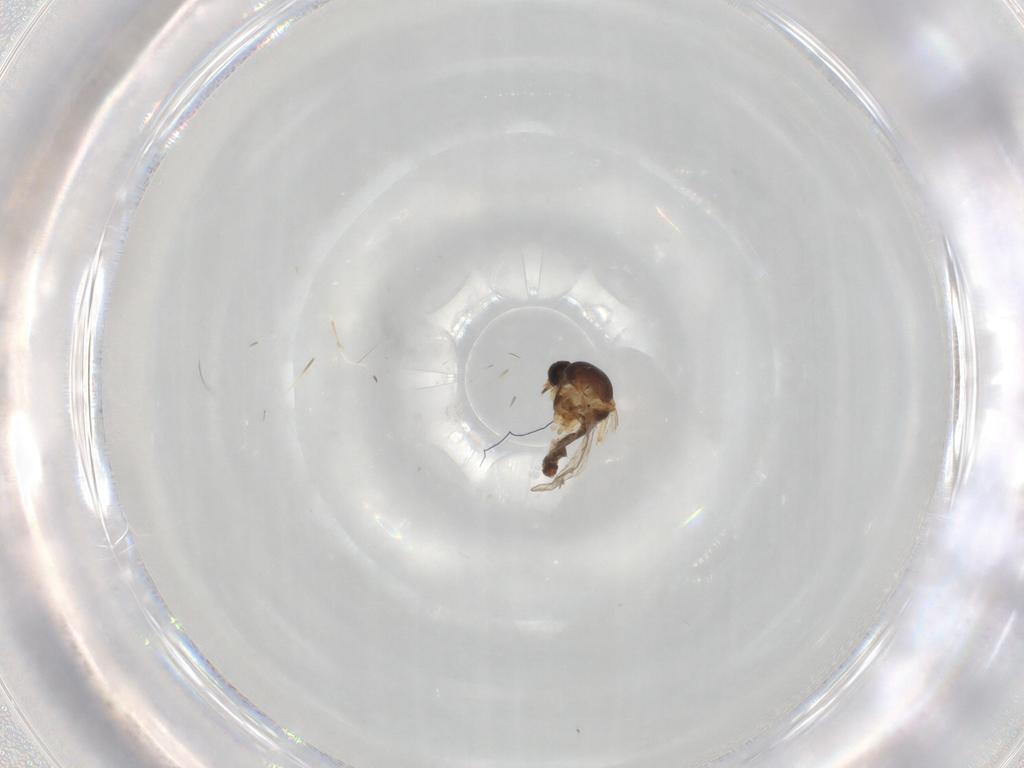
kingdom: Animalia
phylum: Arthropoda
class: Insecta
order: Diptera
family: Ceratopogonidae
